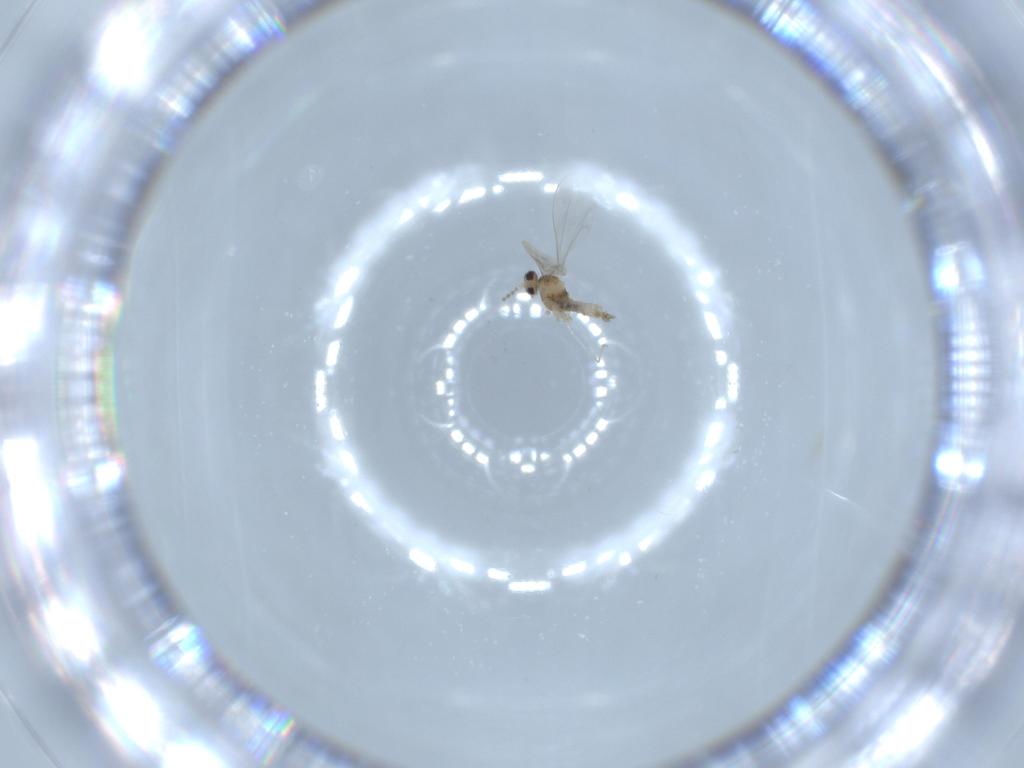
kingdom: Animalia
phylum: Arthropoda
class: Insecta
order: Diptera
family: Cecidomyiidae
